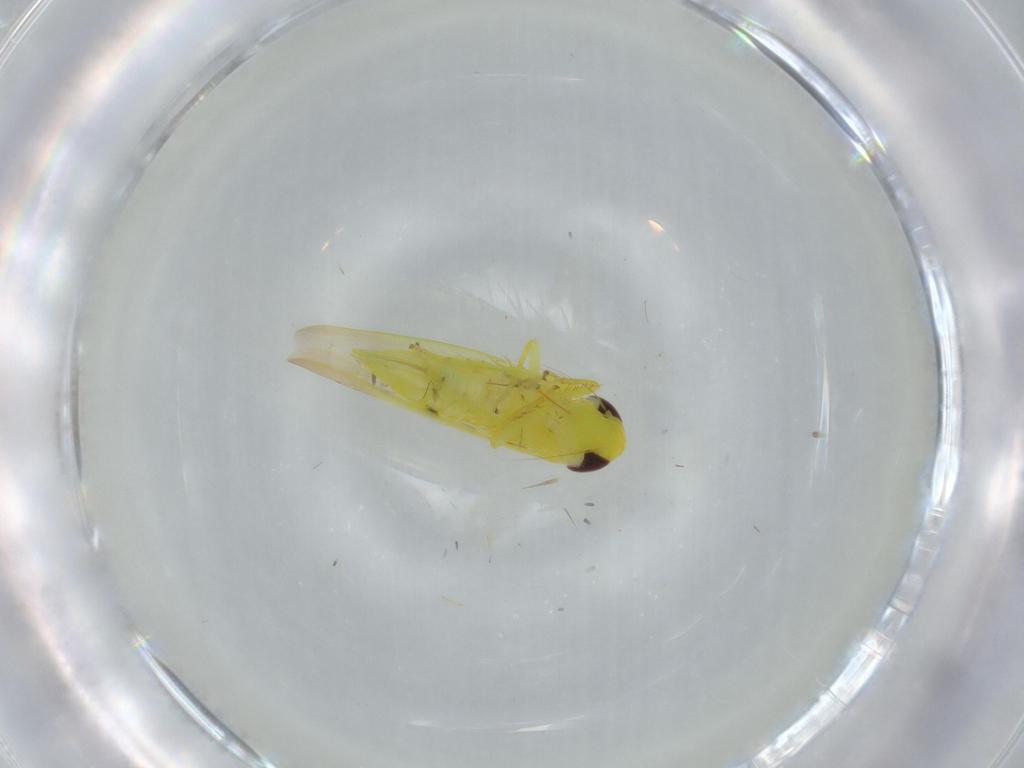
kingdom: Animalia
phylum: Arthropoda
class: Insecta
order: Hemiptera
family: Cicadellidae
